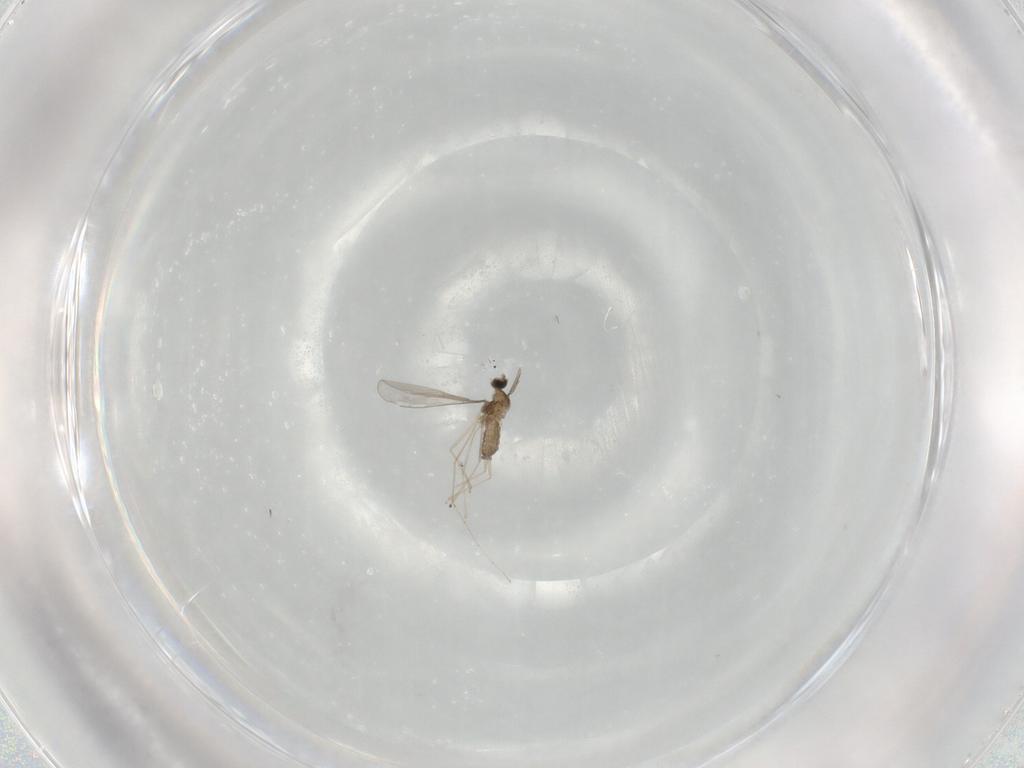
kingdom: Animalia
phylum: Arthropoda
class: Insecta
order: Diptera
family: Cecidomyiidae
